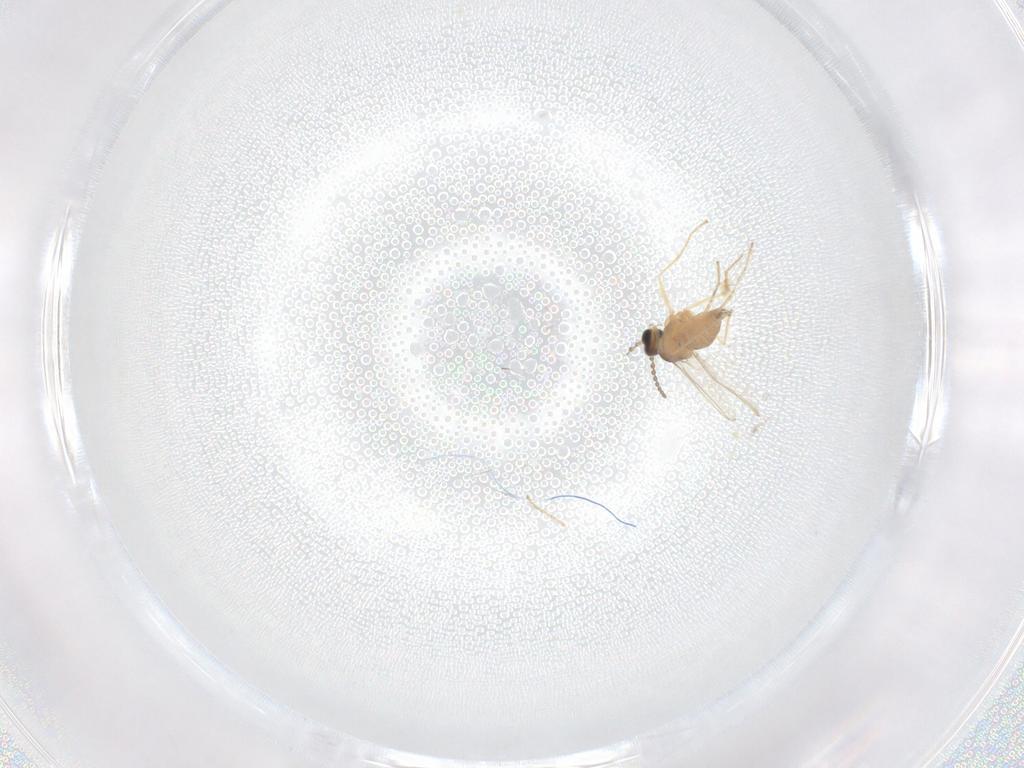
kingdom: Animalia
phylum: Arthropoda
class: Insecta
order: Diptera
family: Cecidomyiidae
